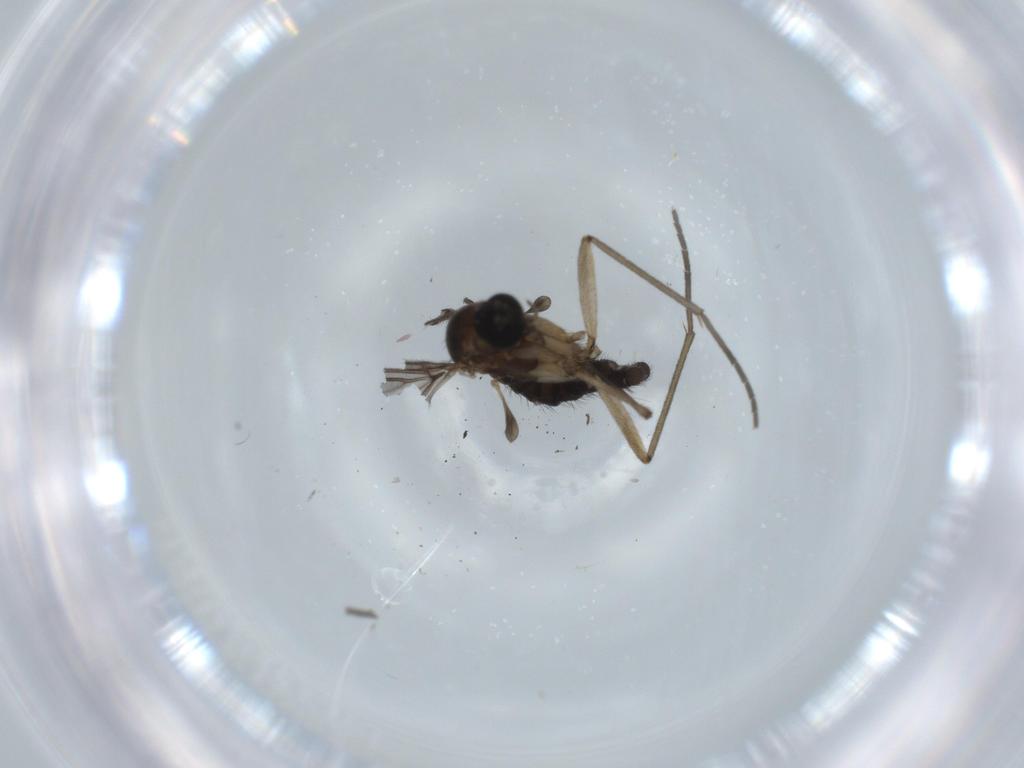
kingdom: Animalia
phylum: Arthropoda
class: Insecta
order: Diptera
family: Sciaridae
